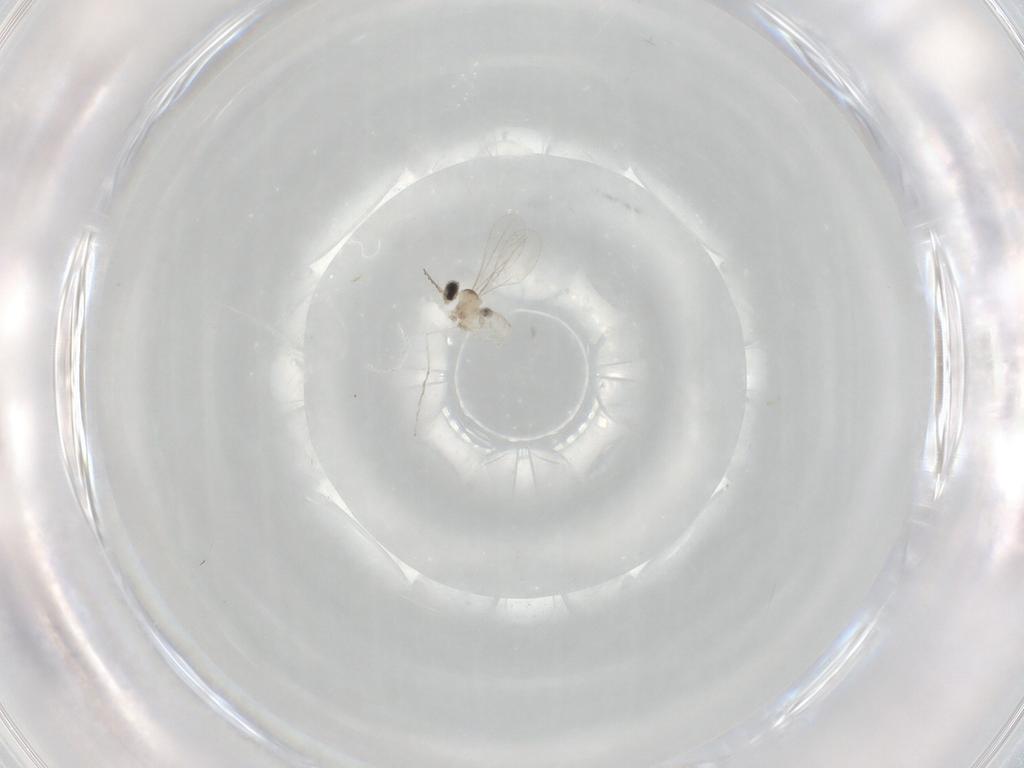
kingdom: Animalia
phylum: Arthropoda
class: Insecta
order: Diptera
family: Cecidomyiidae
